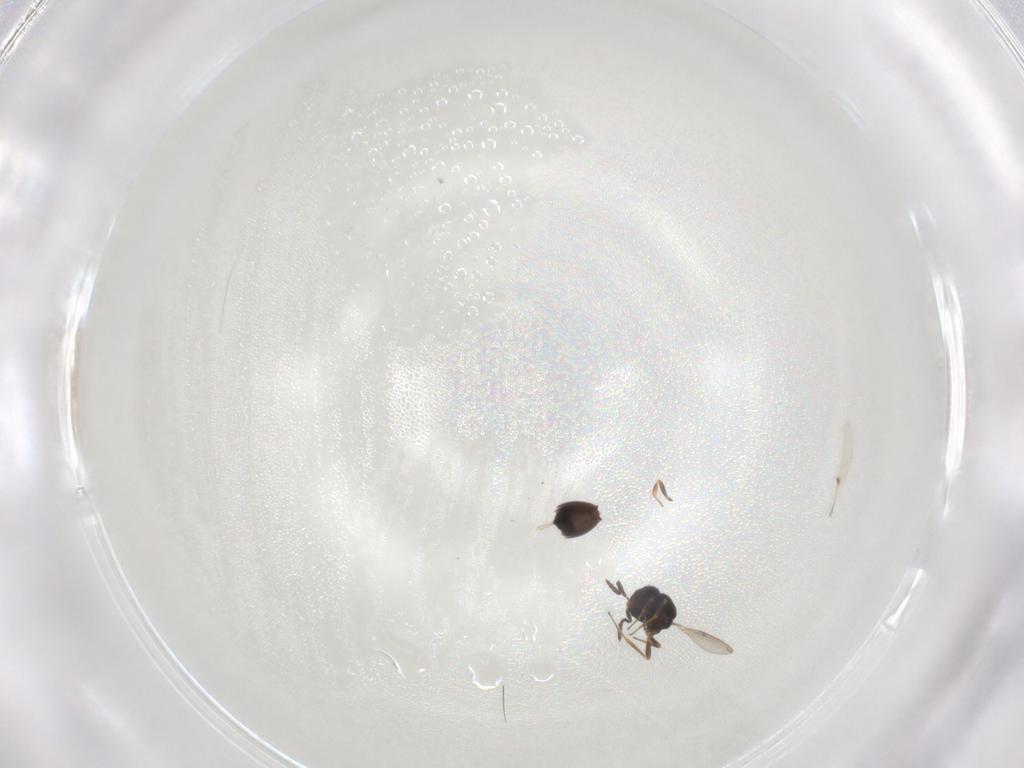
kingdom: Animalia
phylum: Arthropoda
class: Insecta
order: Hymenoptera
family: Scelionidae
